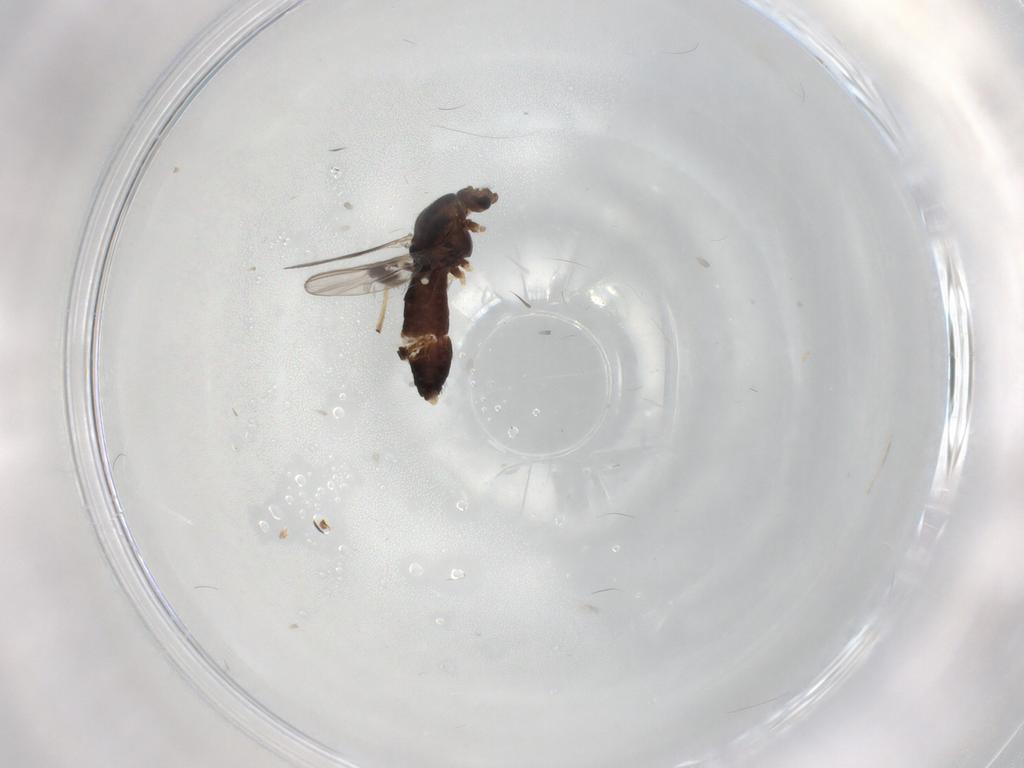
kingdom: Animalia
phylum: Arthropoda
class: Insecta
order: Diptera
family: Chironomidae
